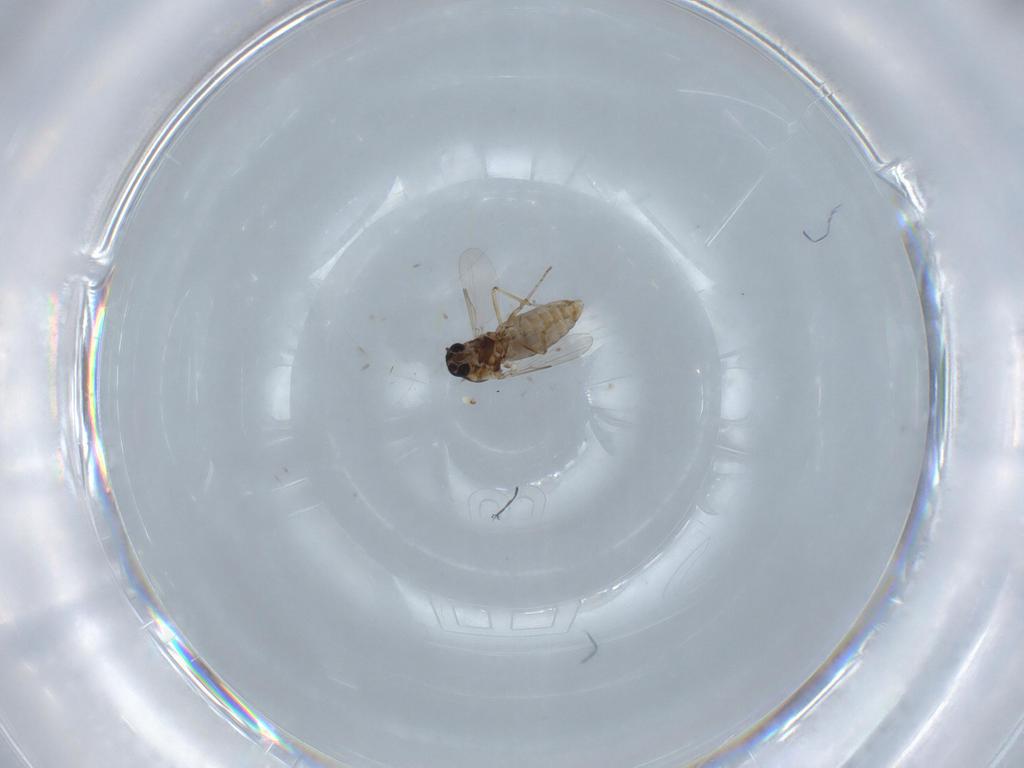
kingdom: Animalia
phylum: Arthropoda
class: Insecta
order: Diptera
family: Ceratopogonidae
